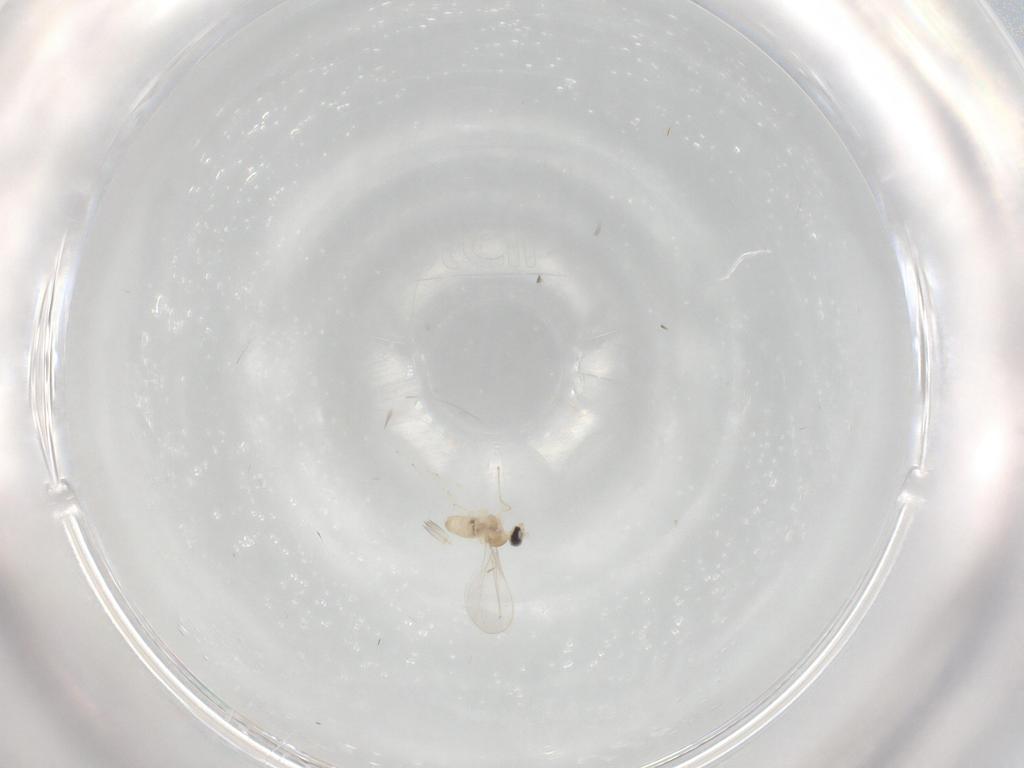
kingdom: Animalia
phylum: Arthropoda
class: Insecta
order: Diptera
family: Cecidomyiidae
